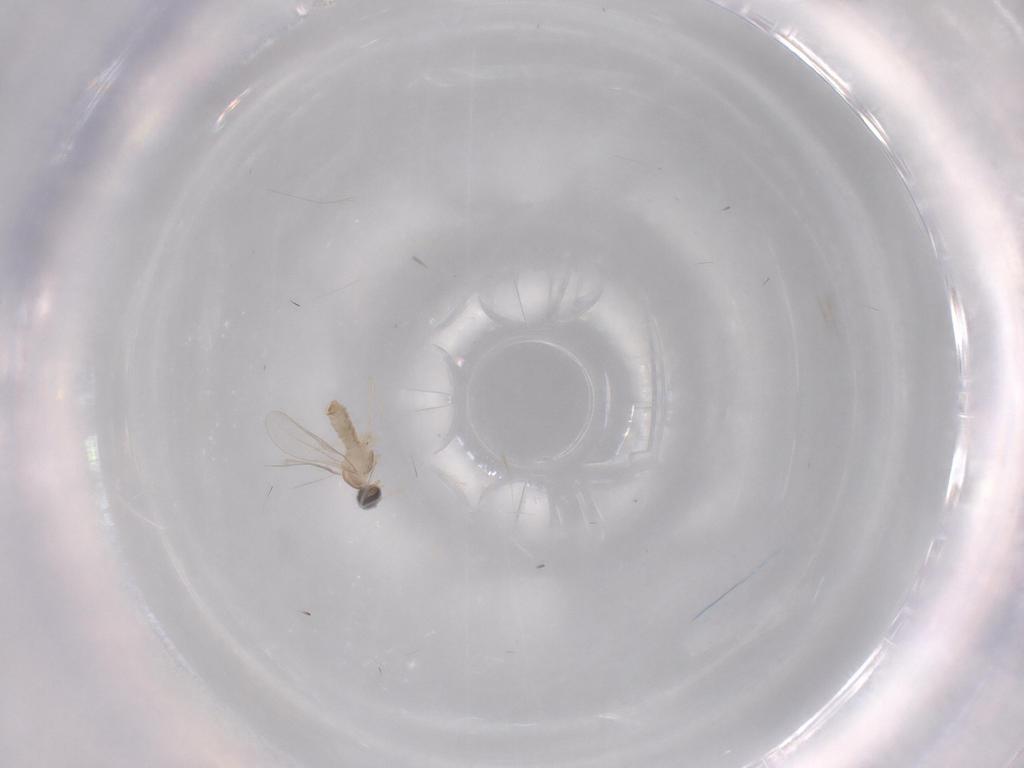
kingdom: Animalia
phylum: Arthropoda
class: Insecta
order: Diptera
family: Cecidomyiidae
